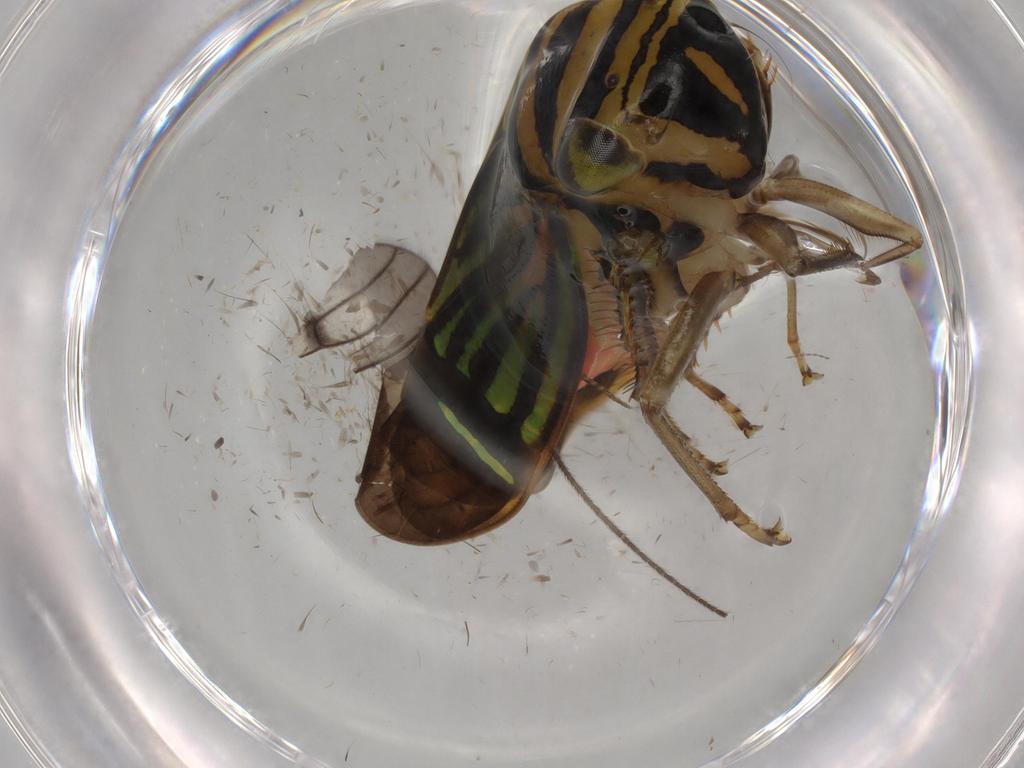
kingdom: Animalia
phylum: Arthropoda
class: Insecta
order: Hemiptera
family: Cicadellidae
